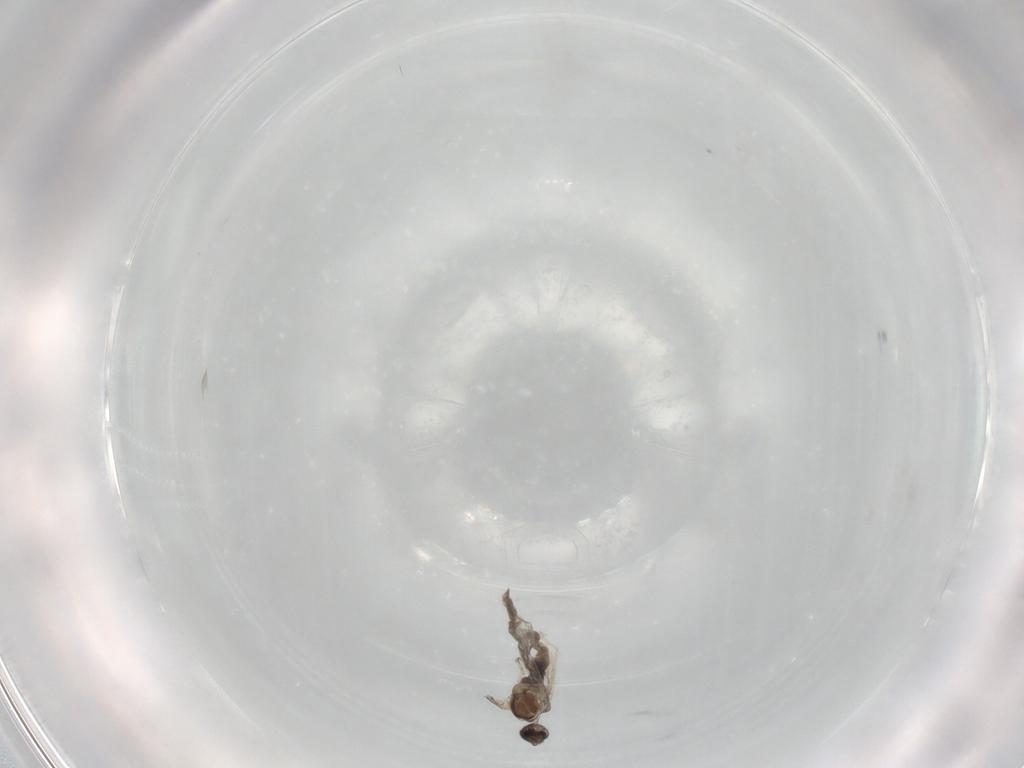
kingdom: Animalia
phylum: Arthropoda
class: Insecta
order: Diptera
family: Cecidomyiidae
